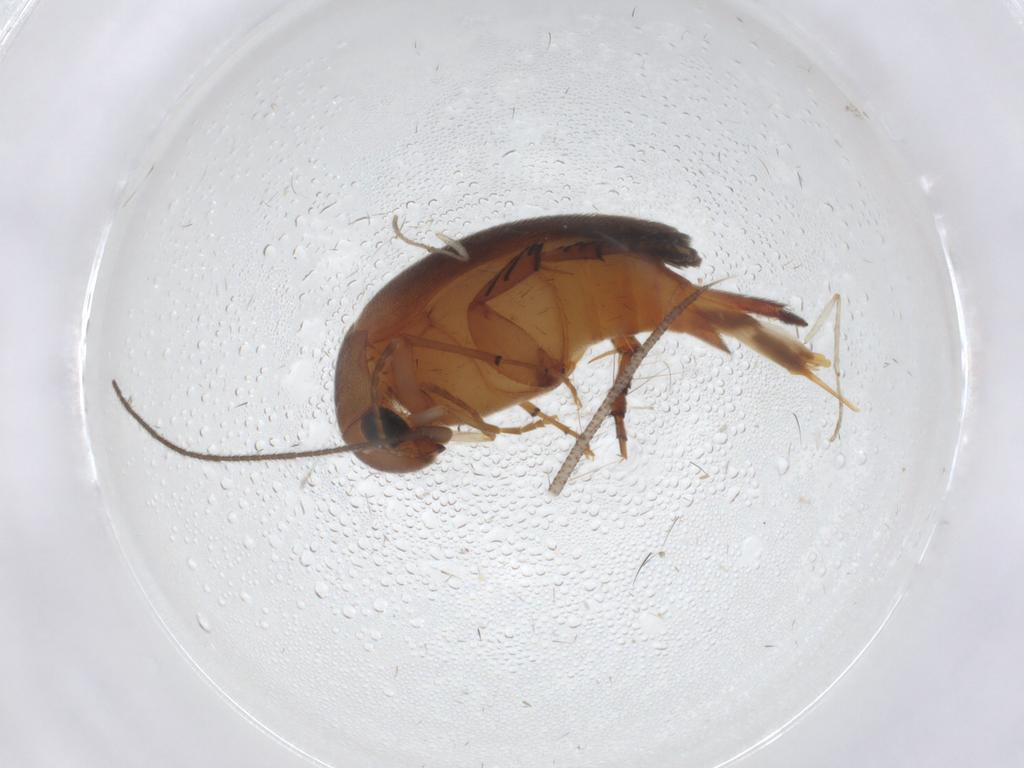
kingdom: Animalia
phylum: Arthropoda
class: Insecta
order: Coleoptera
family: Mordellidae
